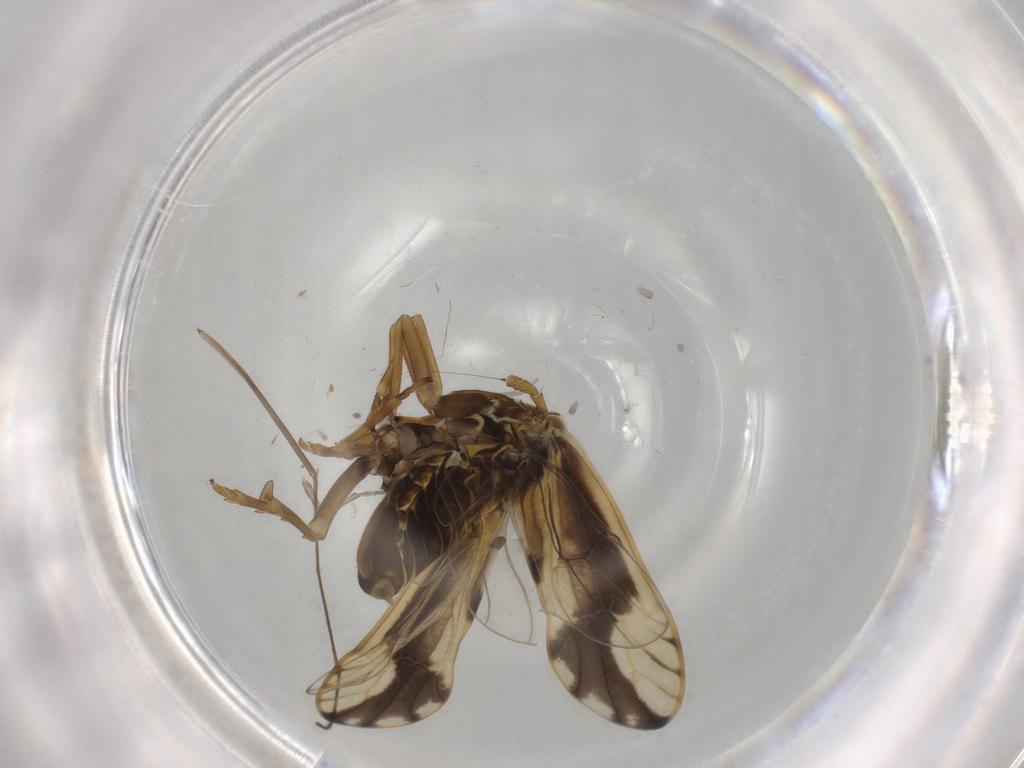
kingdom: Animalia
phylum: Arthropoda
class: Insecta
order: Hemiptera
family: Delphacidae
